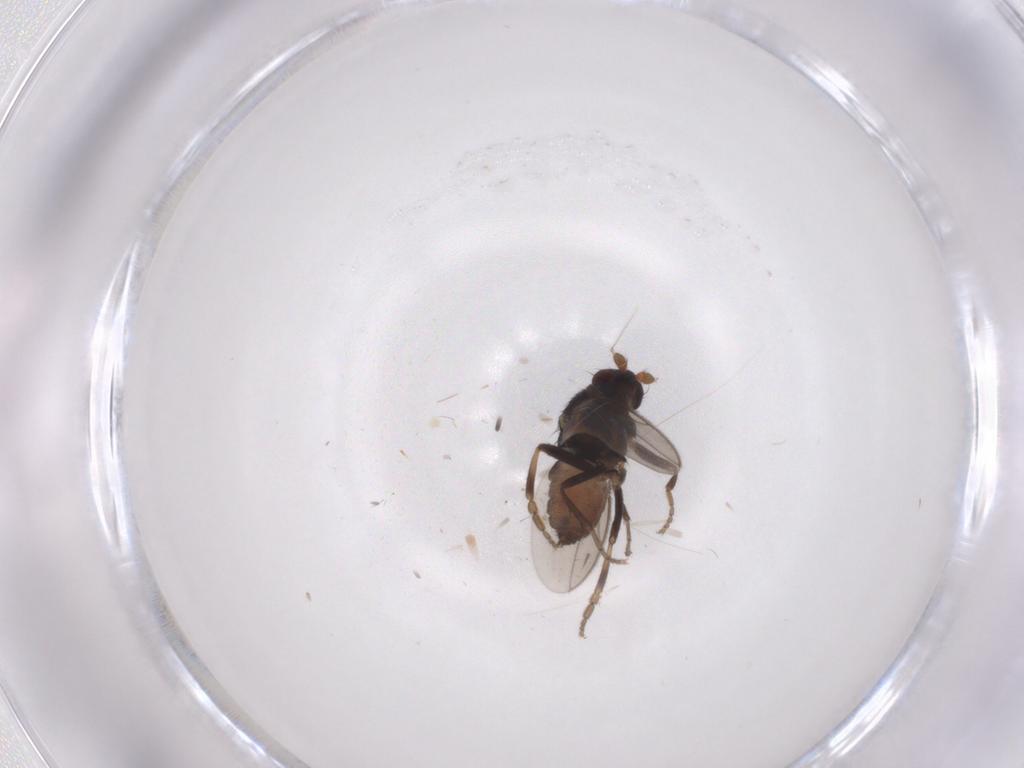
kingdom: Animalia
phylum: Arthropoda
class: Insecta
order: Diptera
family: Sphaeroceridae
